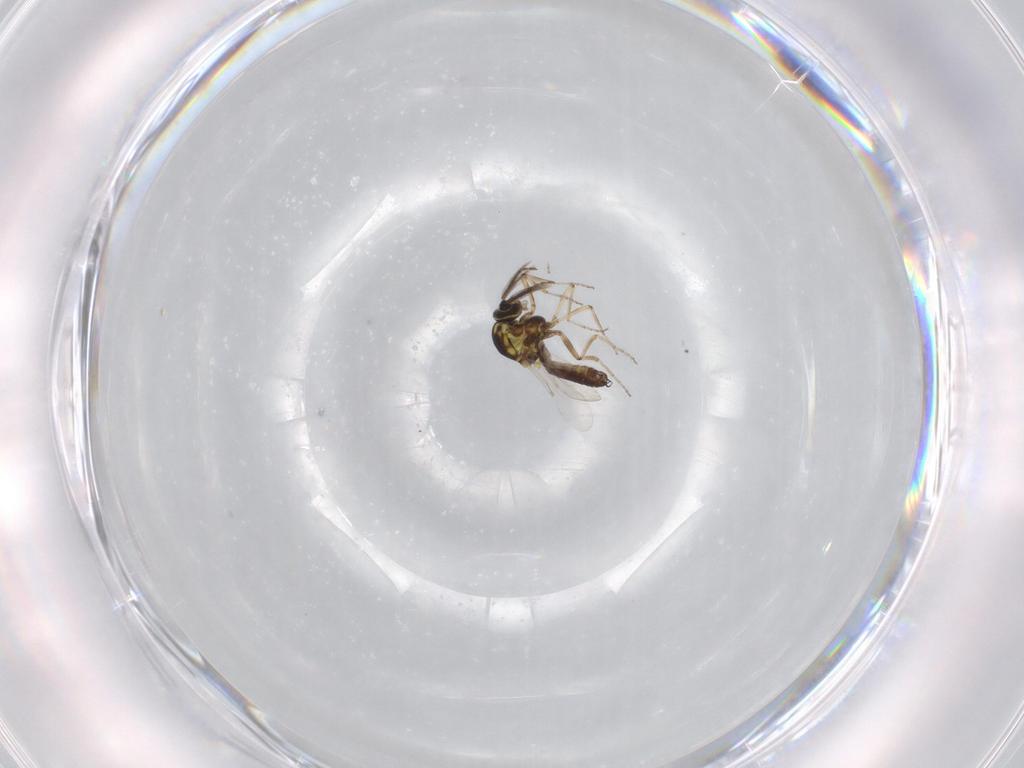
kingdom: Animalia
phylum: Arthropoda
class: Insecta
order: Diptera
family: Ceratopogonidae
